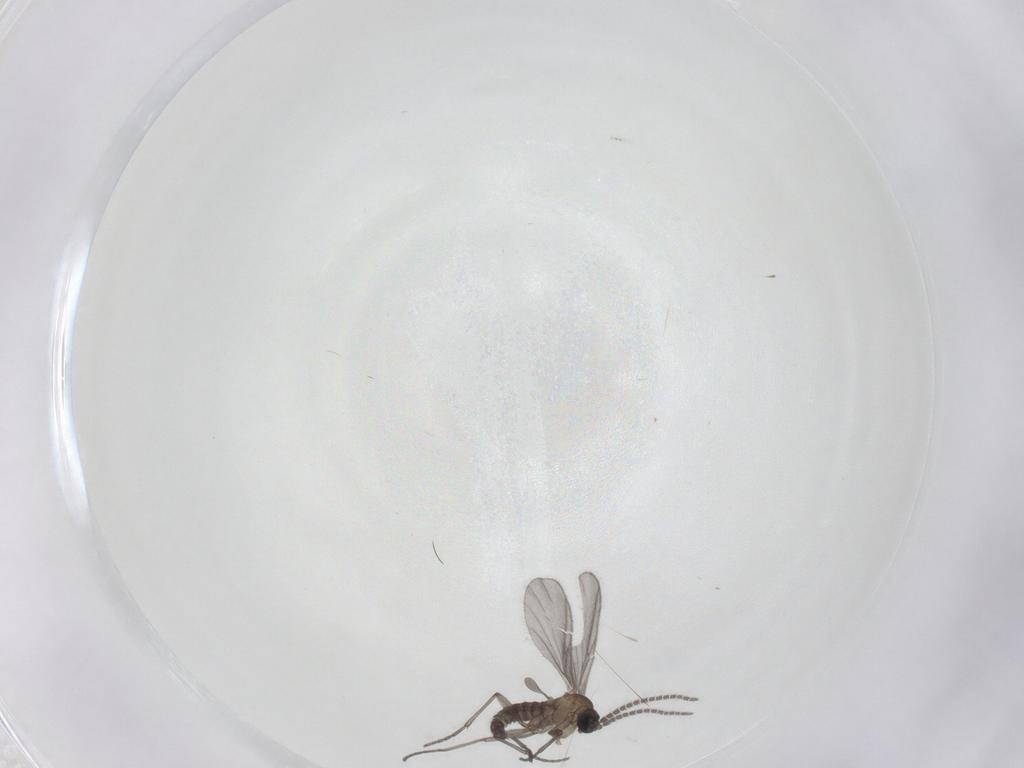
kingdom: Animalia
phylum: Arthropoda
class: Insecta
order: Diptera
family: Sciaridae
